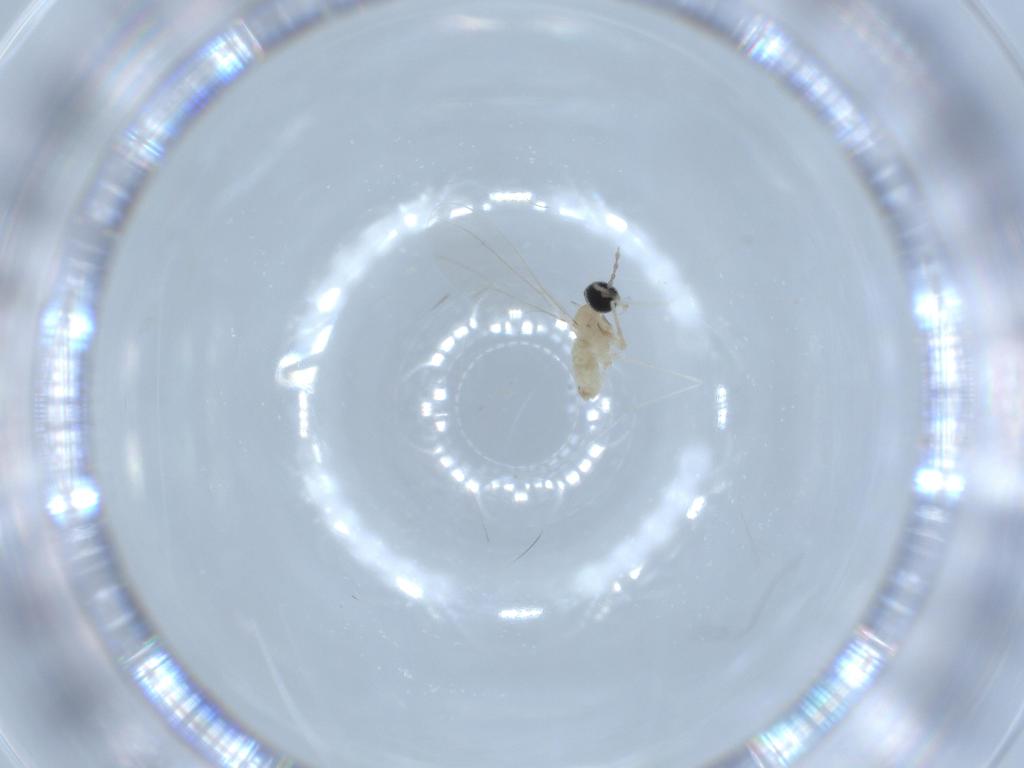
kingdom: Animalia
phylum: Arthropoda
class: Insecta
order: Diptera
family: Cecidomyiidae
